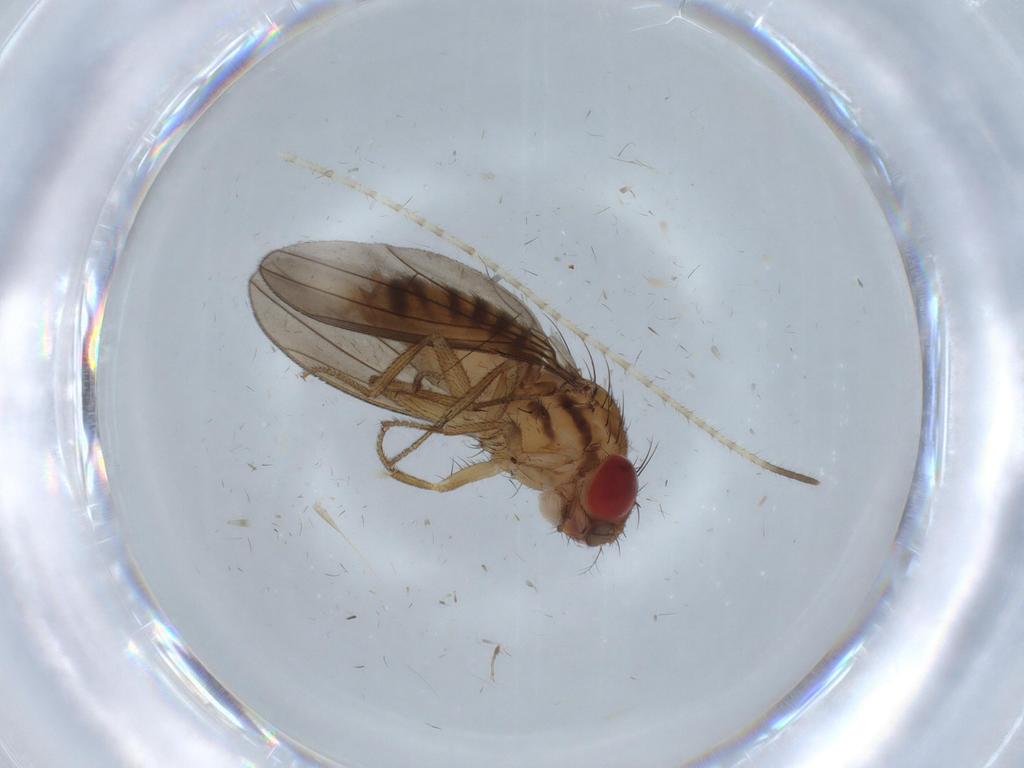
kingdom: Animalia
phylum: Arthropoda
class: Insecta
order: Diptera
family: Drosophilidae
